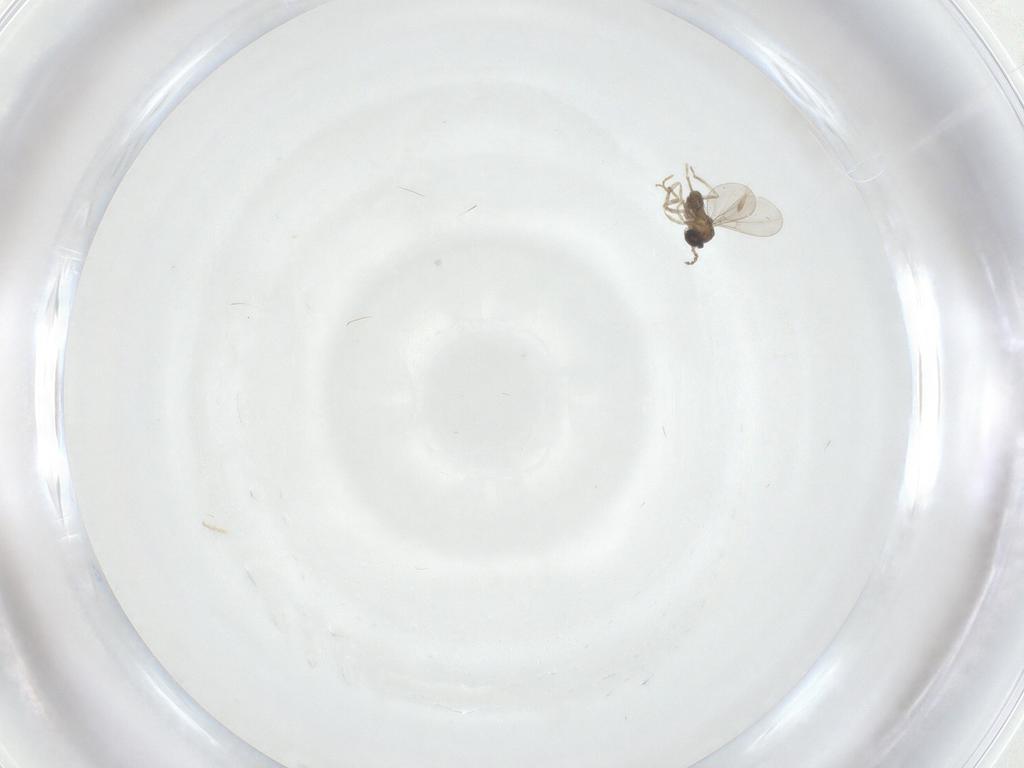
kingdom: Animalia
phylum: Arthropoda
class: Insecta
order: Diptera
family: Cecidomyiidae
